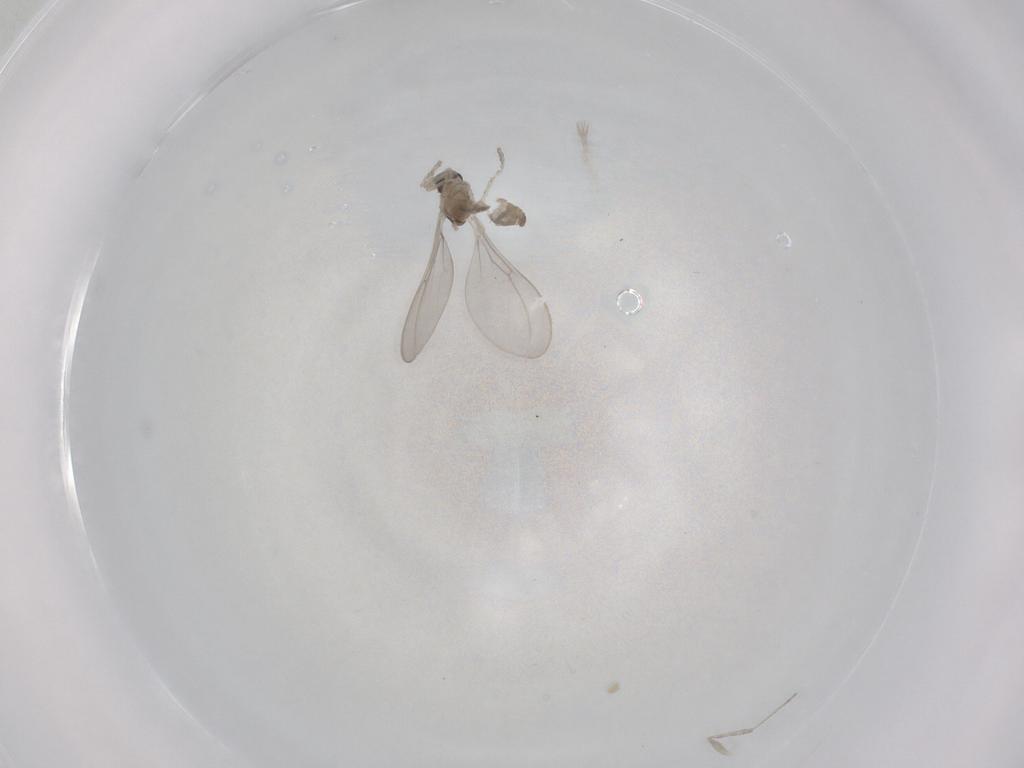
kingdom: Animalia
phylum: Arthropoda
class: Insecta
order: Diptera
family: Cecidomyiidae
